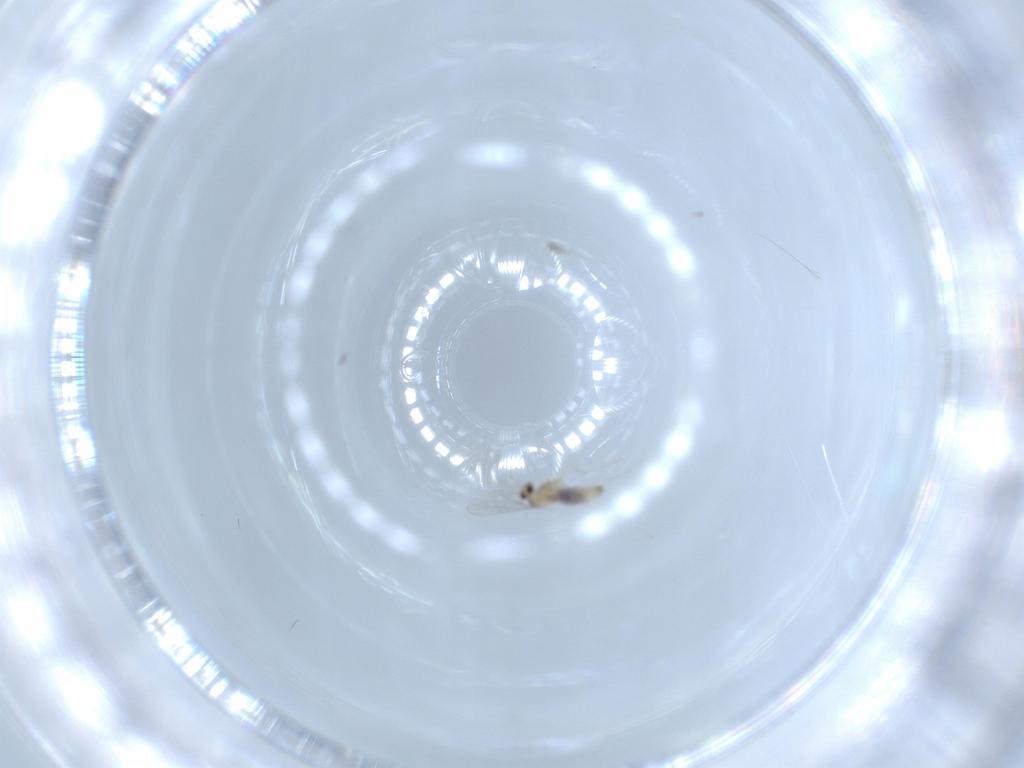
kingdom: Animalia
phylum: Arthropoda
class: Insecta
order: Diptera
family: Cecidomyiidae
